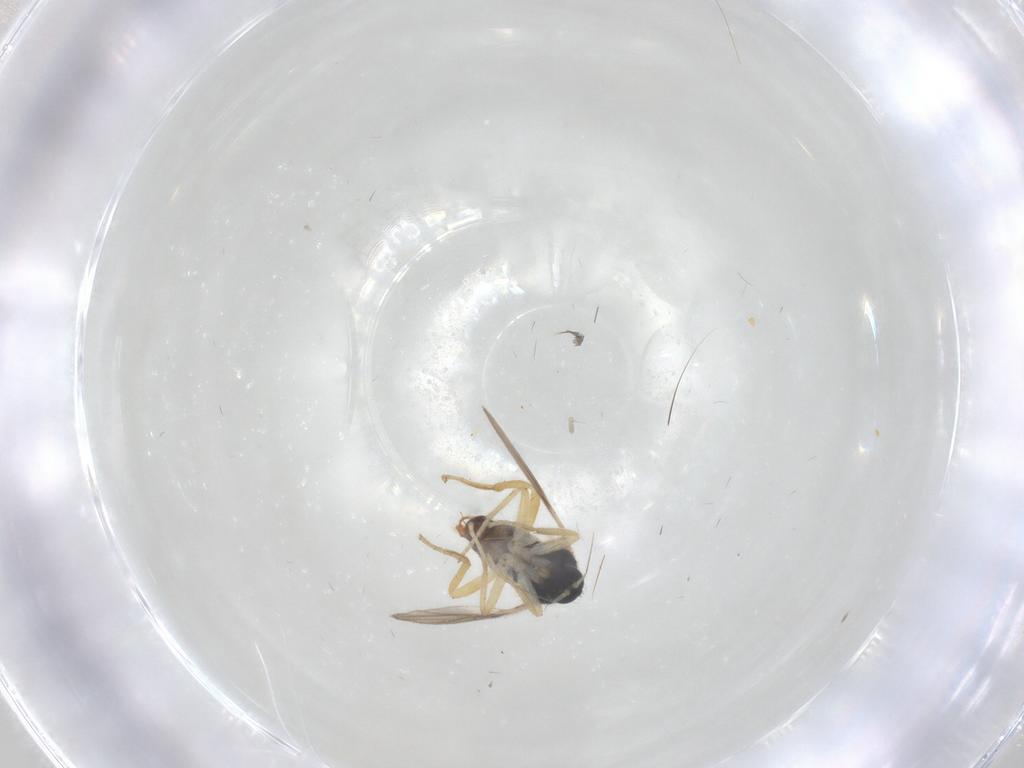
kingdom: Animalia
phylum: Arthropoda
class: Insecta
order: Diptera
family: Hybotidae
